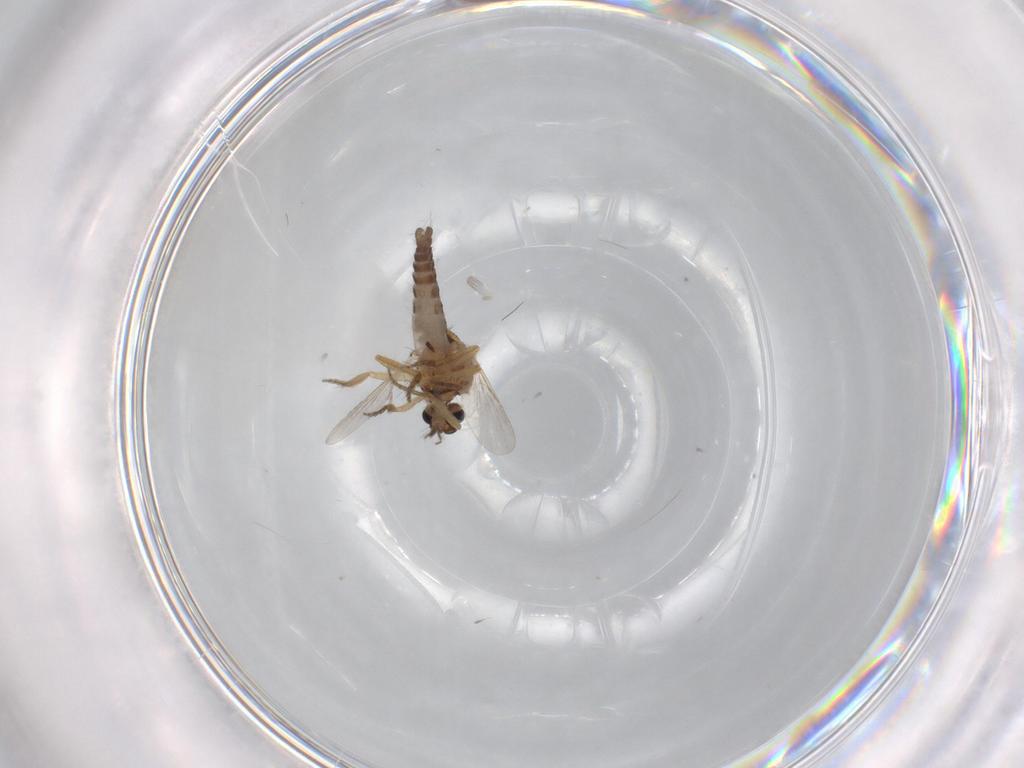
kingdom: Animalia
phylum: Arthropoda
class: Insecta
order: Diptera
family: Ceratopogonidae
